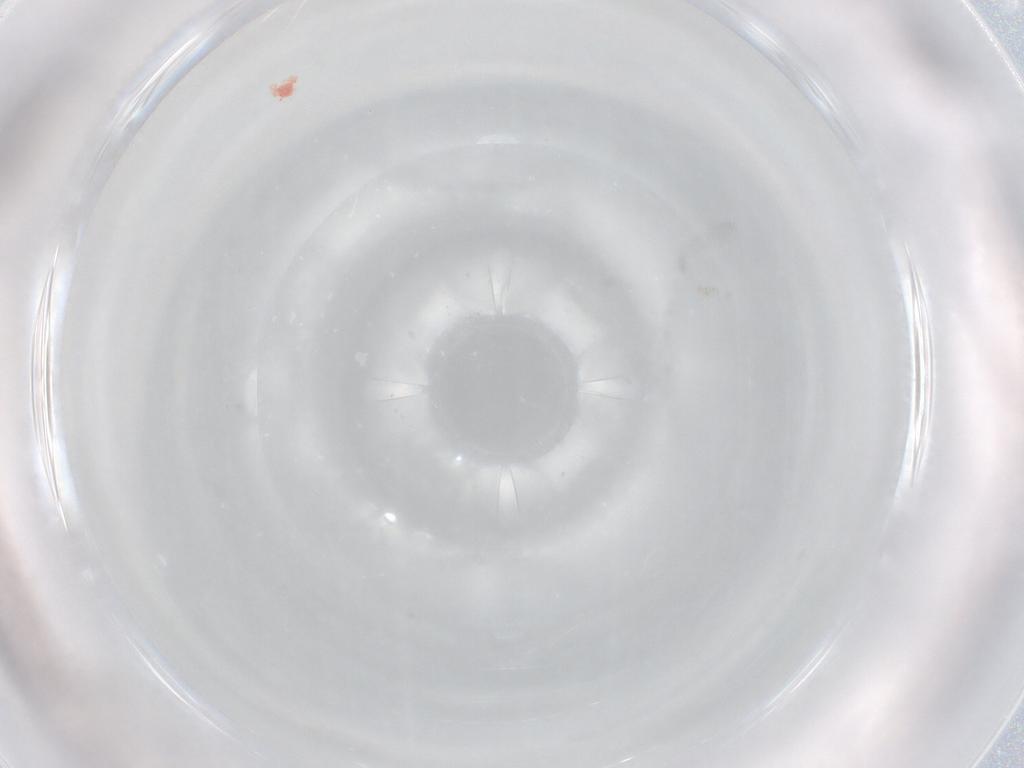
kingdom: Animalia
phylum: Arthropoda
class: Arachnida
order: Trombidiformes
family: Bdellidae
